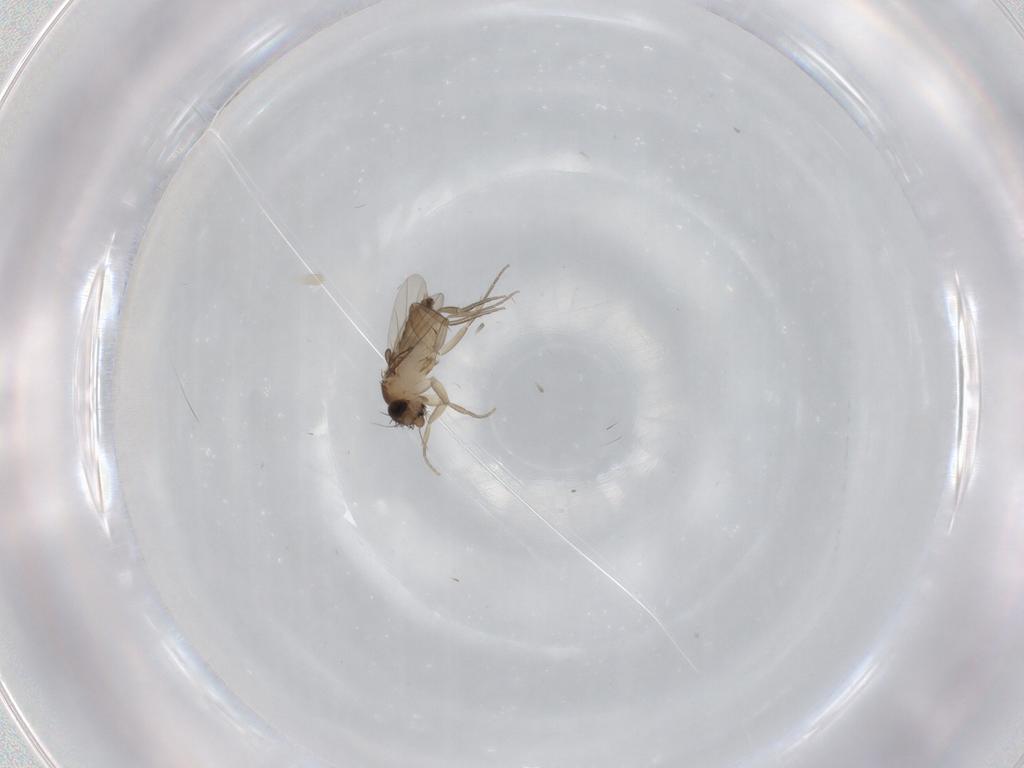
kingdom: Animalia
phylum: Arthropoda
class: Insecta
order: Diptera
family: Phoridae
